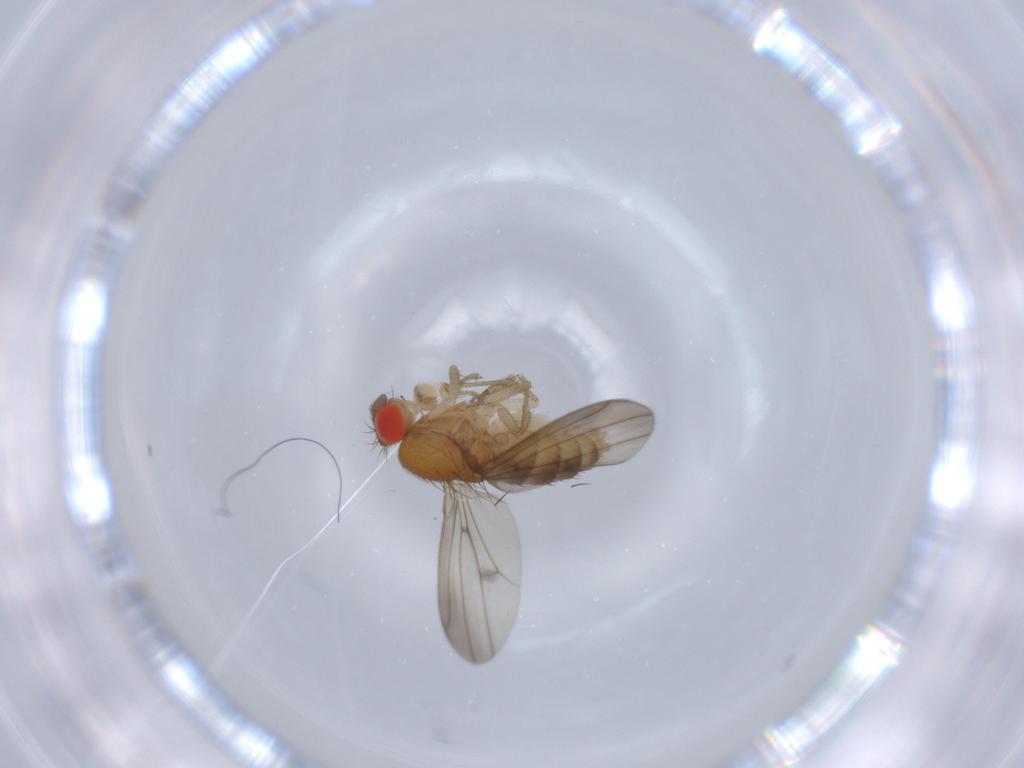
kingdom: Animalia
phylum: Arthropoda
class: Insecta
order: Diptera
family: Drosophilidae
